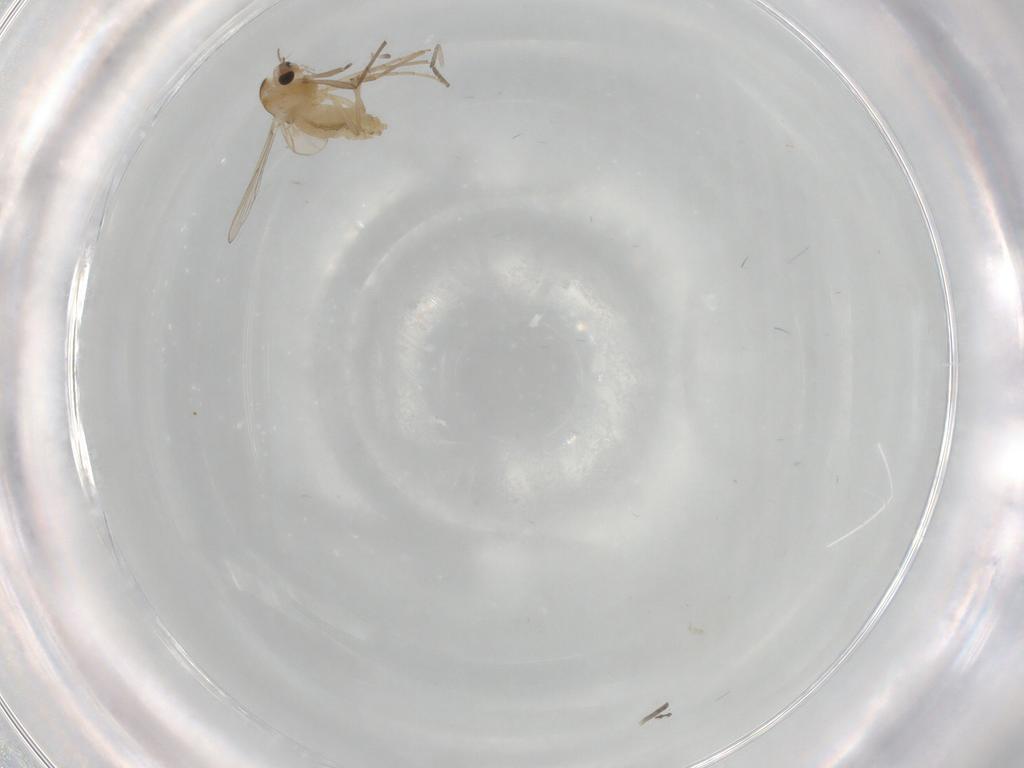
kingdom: Animalia
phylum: Arthropoda
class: Insecta
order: Diptera
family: Chironomidae
